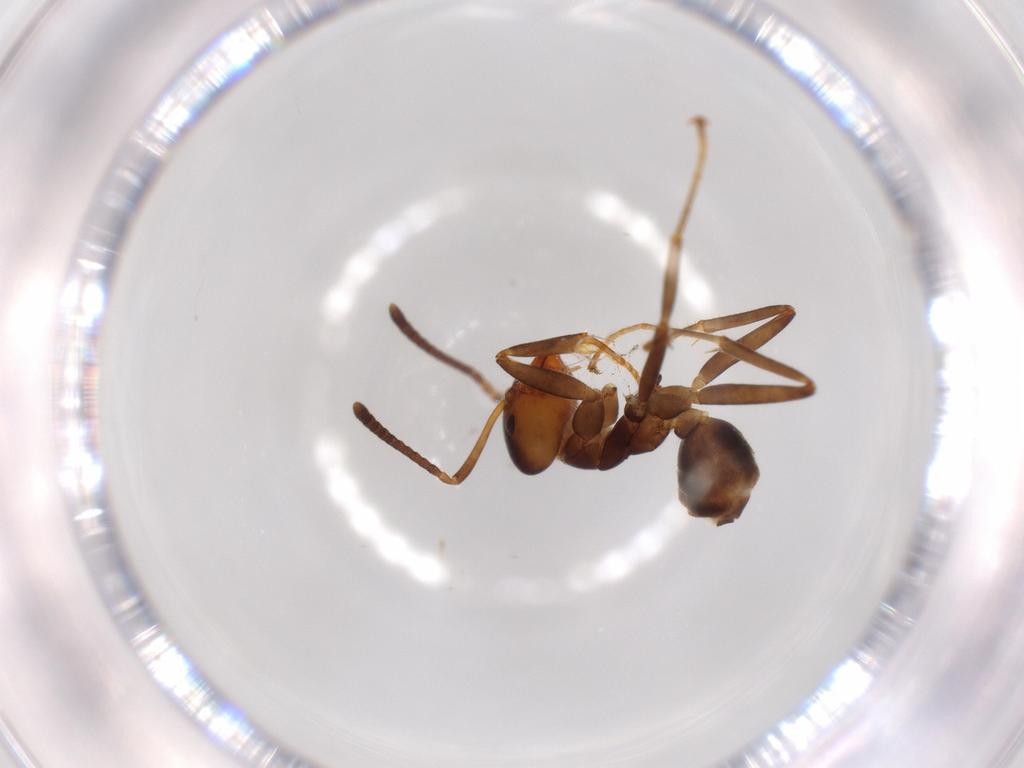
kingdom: Animalia
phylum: Arthropoda
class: Insecta
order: Hymenoptera
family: Formicidae
